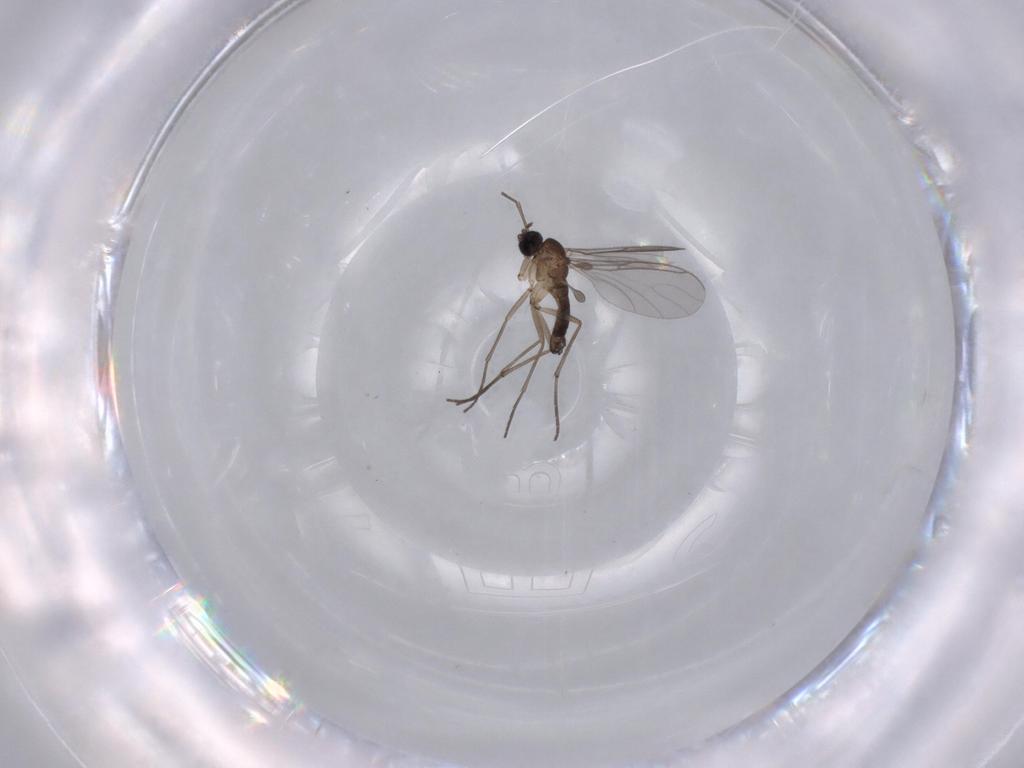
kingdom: Animalia
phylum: Arthropoda
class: Insecta
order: Diptera
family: Sciaridae
